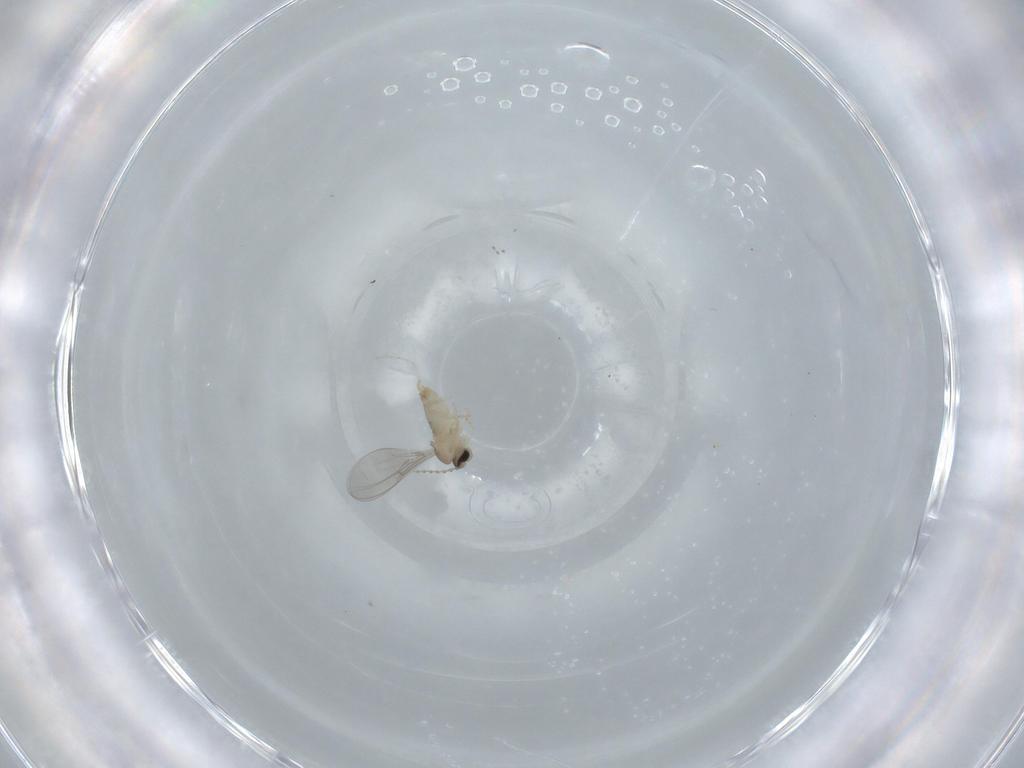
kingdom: Animalia
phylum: Arthropoda
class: Insecta
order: Diptera
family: Cecidomyiidae
